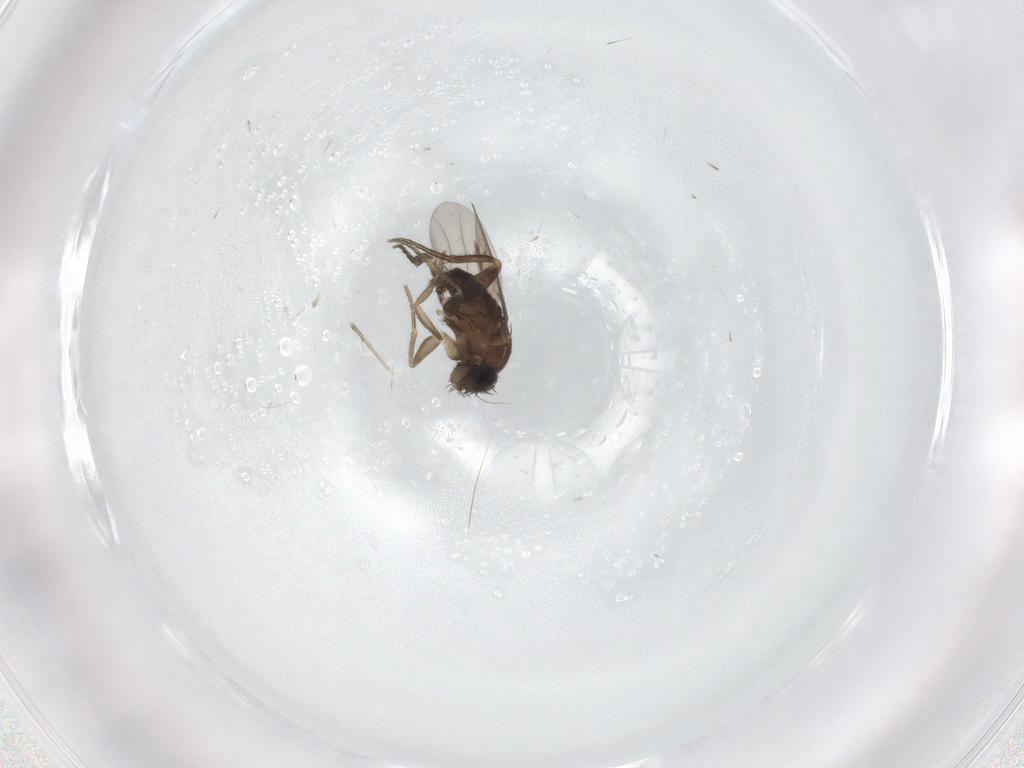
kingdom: Animalia
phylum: Arthropoda
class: Insecta
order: Diptera
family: Phoridae
